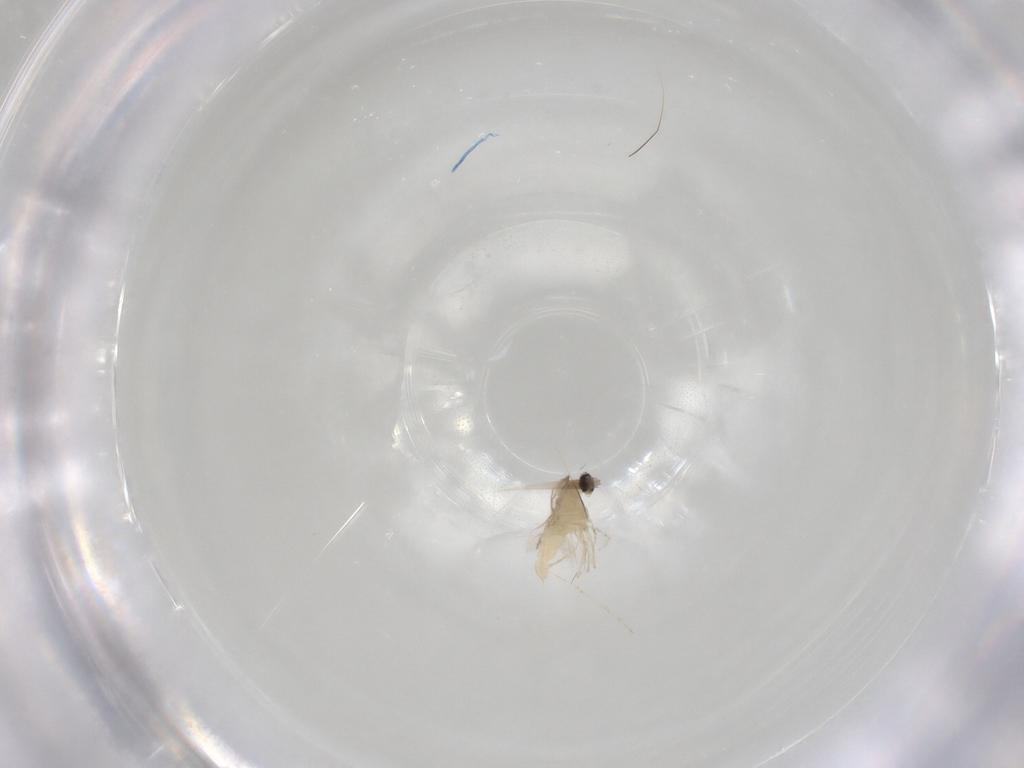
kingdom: Animalia
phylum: Arthropoda
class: Insecta
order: Diptera
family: Cecidomyiidae
